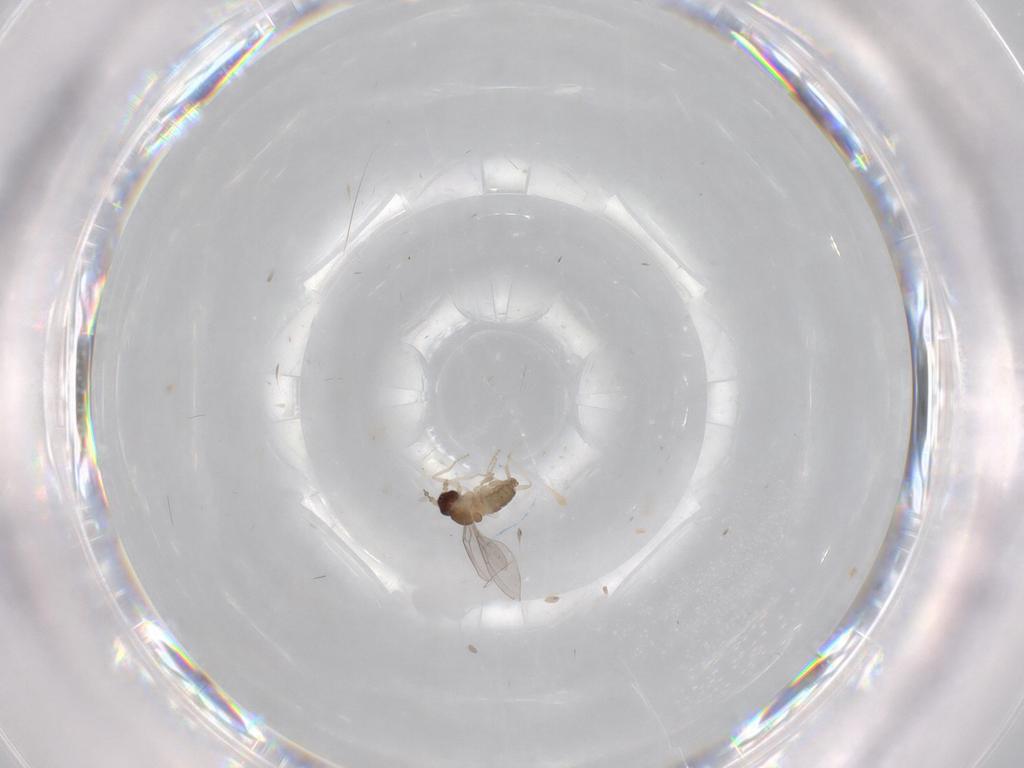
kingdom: Animalia
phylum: Arthropoda
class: Insecta
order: Diptera
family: Cecidomyiidae
